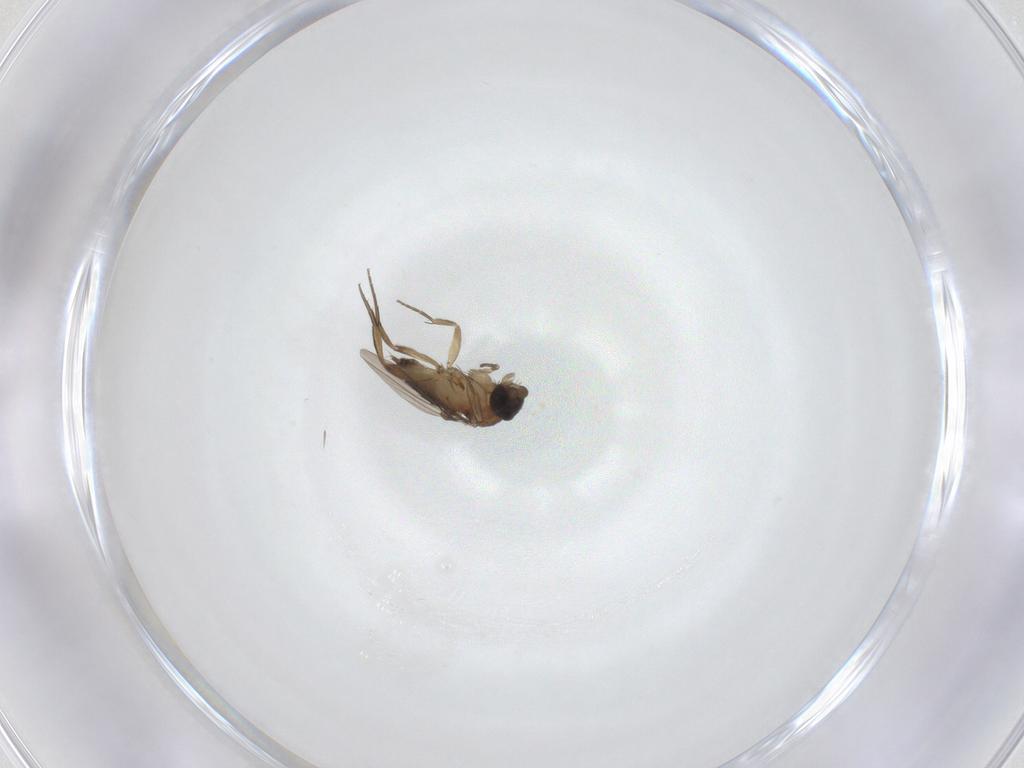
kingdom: Animalia
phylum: Arthropoda
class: Insecta
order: Diptera
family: Phoridae
